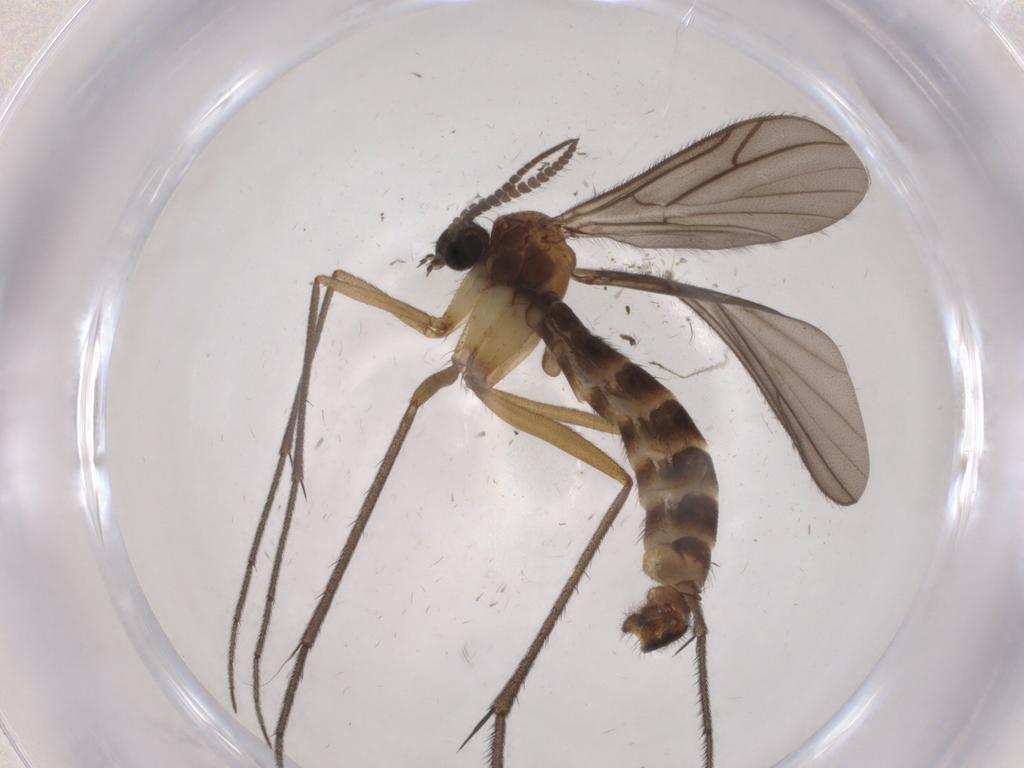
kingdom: Animalia
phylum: Arthropoda
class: Insecta
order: Diptera
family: Ditomyiidae
